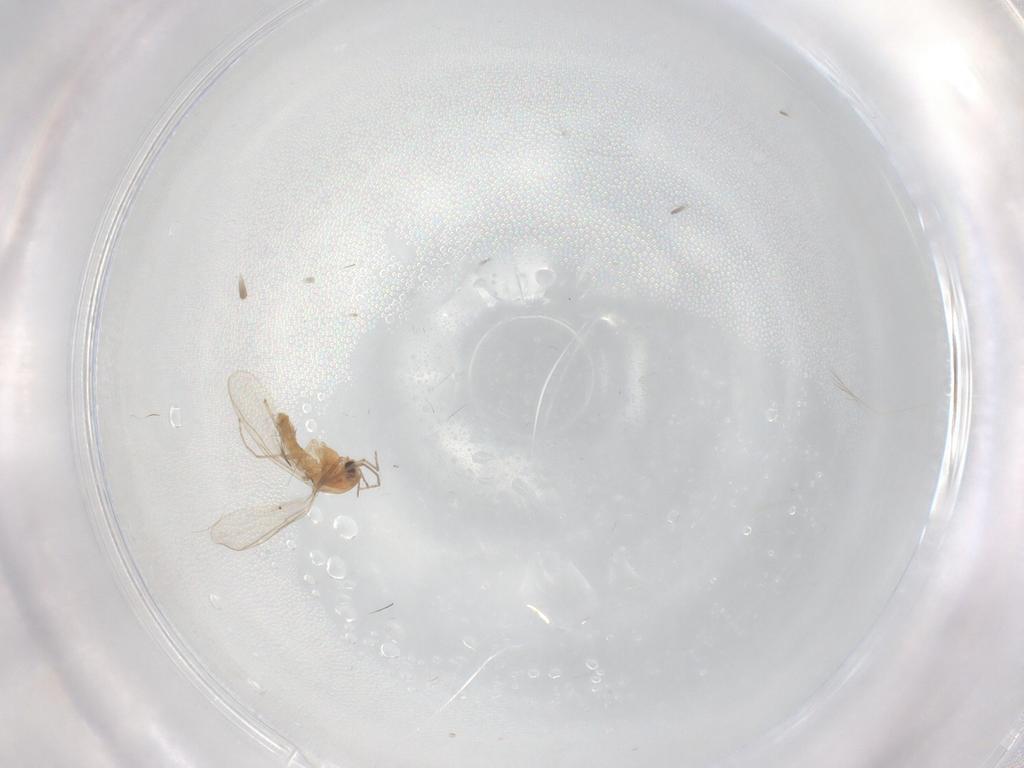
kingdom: Animalia
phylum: Arthropoda
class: Insecta
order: Diptera
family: Chironomidae
